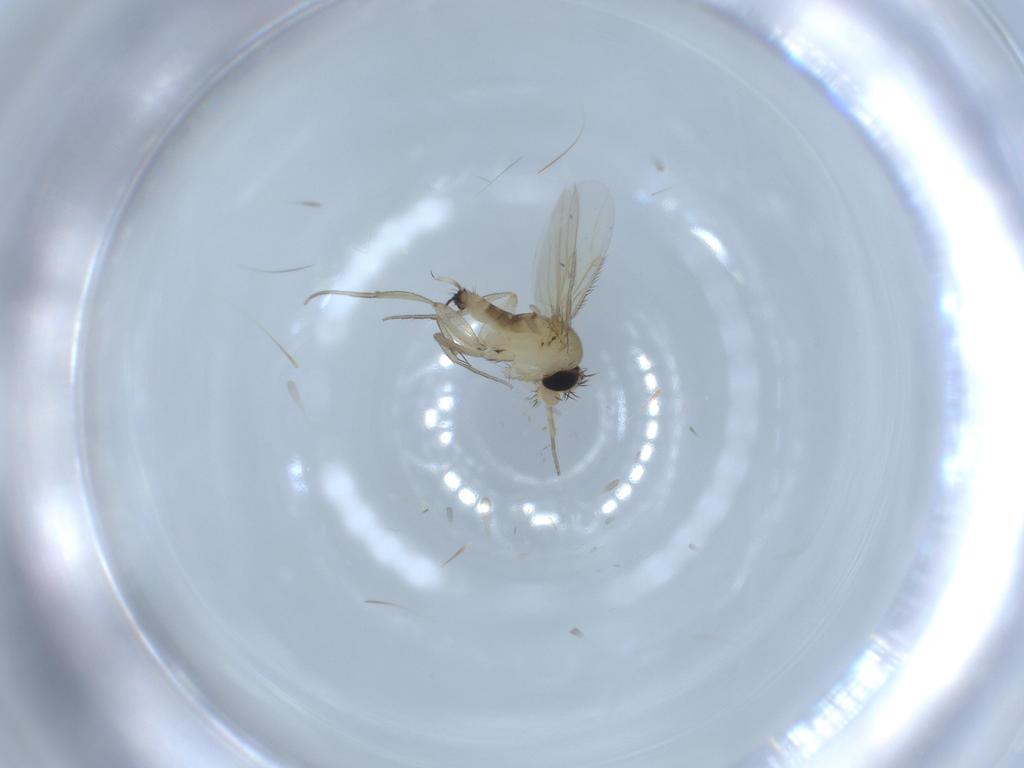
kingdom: Animalia
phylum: Arthropoda
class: Insecta
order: Diptera
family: Phoridae
